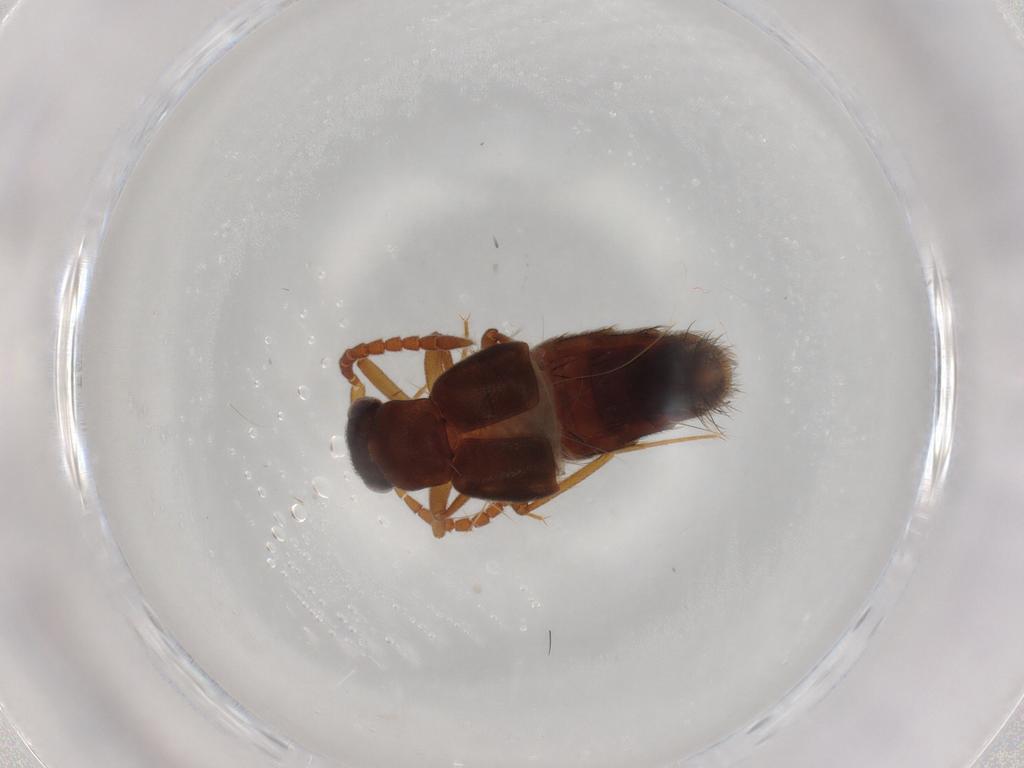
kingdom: Animalia
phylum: Arthropoda
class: Insecta
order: Coleoptera
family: Staphylinidae
